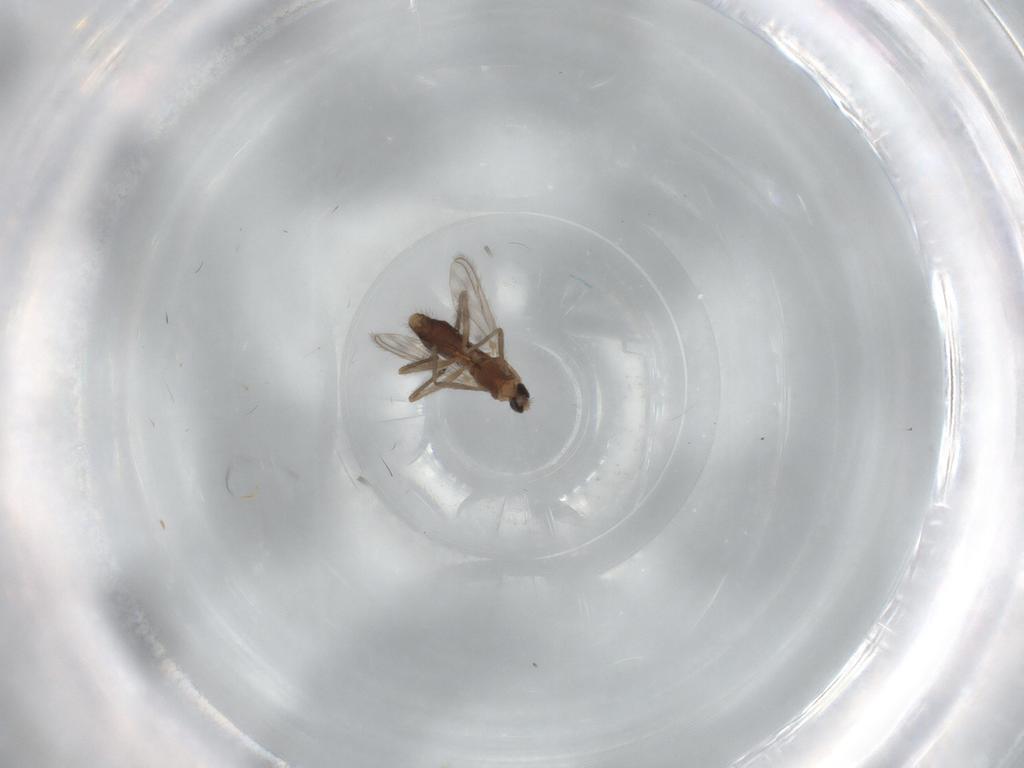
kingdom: Animalia
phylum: Arthropoda
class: Insecta
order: Diptera
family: Chironomidae
